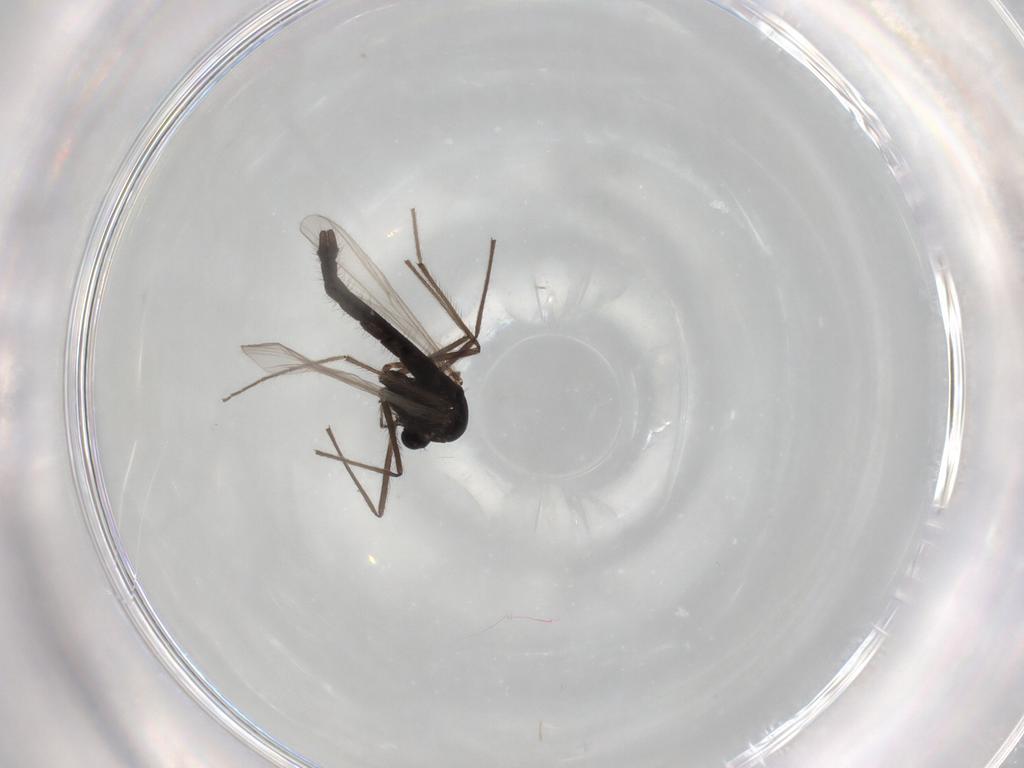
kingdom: Animalia
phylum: Arthropoda
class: Insecta
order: Diptera
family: Chironomidae
